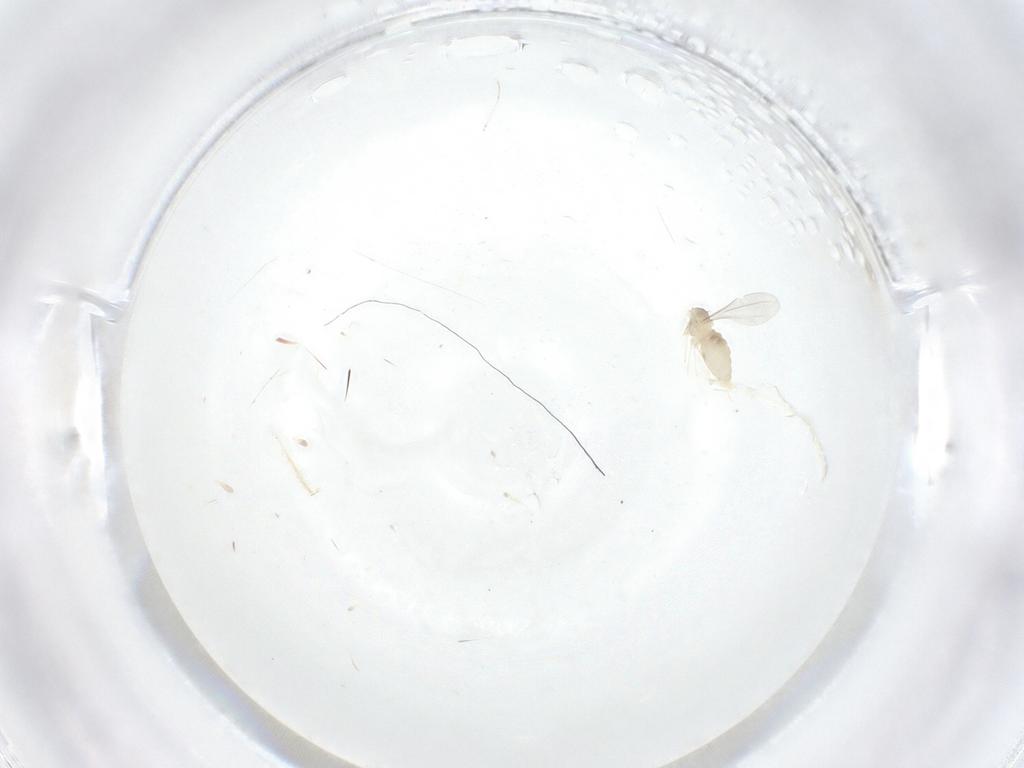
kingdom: Animalia
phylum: Arthropoda
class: Insecta
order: Diptera
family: Cecidomyiidae
